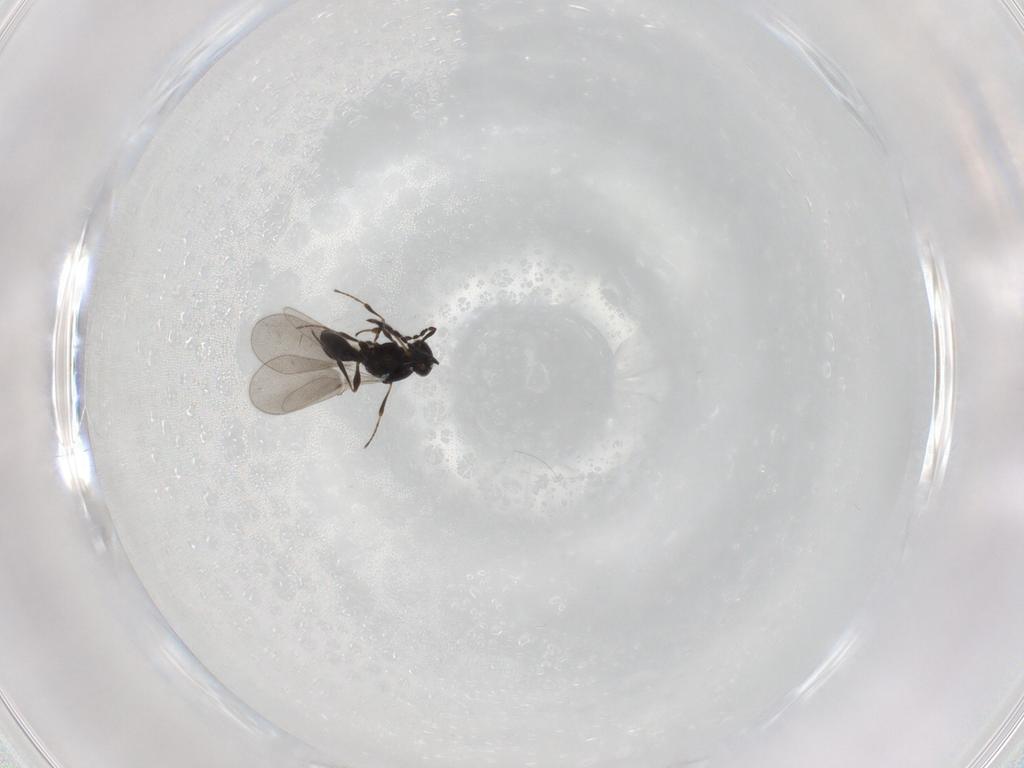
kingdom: Animalia
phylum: Arthropoda
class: Insecta
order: Hymenoptera
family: Platygastridae
